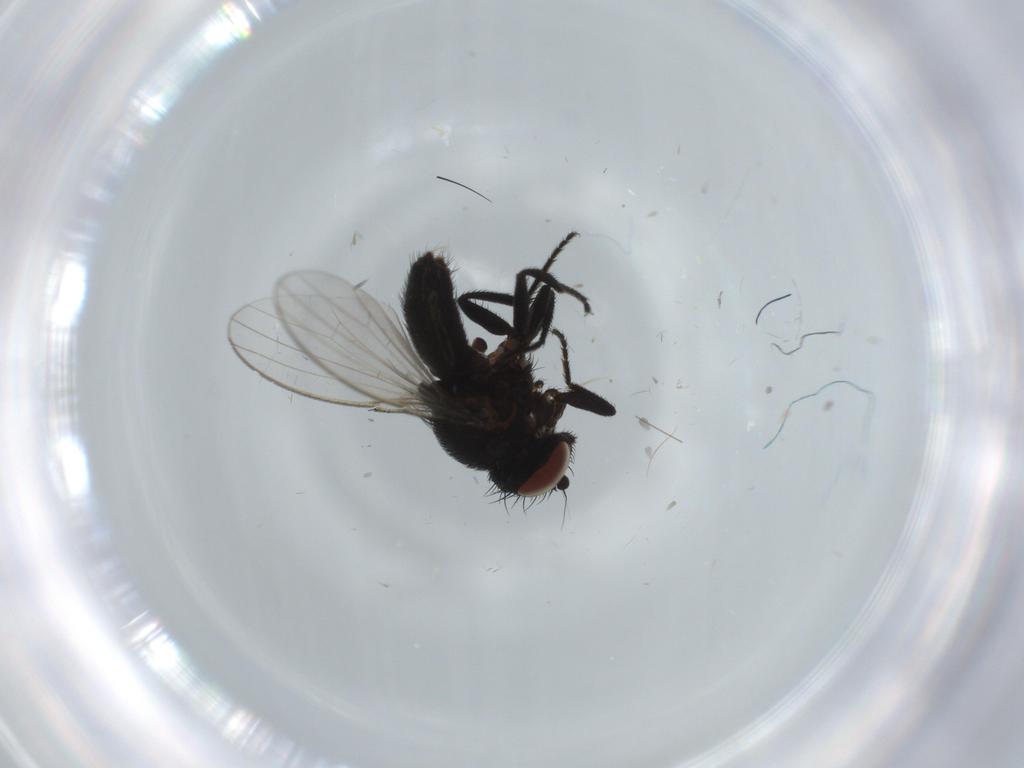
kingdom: Animalia
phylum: Arthropoda
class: Insecta
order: Diptera
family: Phoridae
